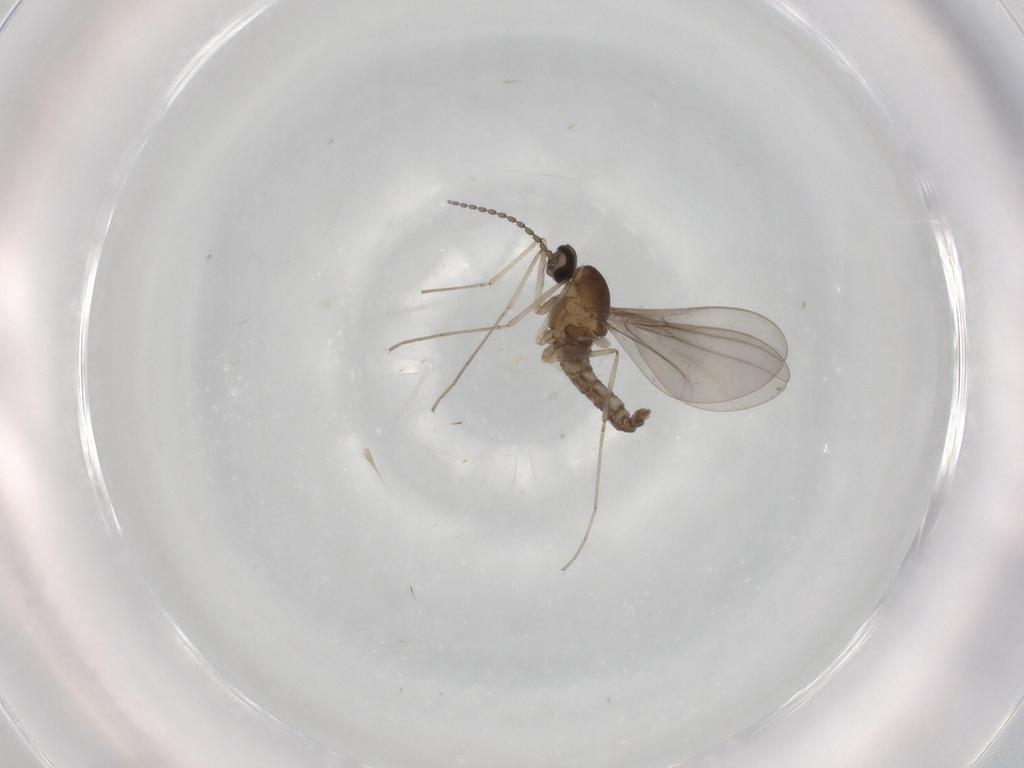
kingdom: Animalia
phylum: Arthropoda
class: Insecta
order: Diptera
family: Cecidomyiidae
